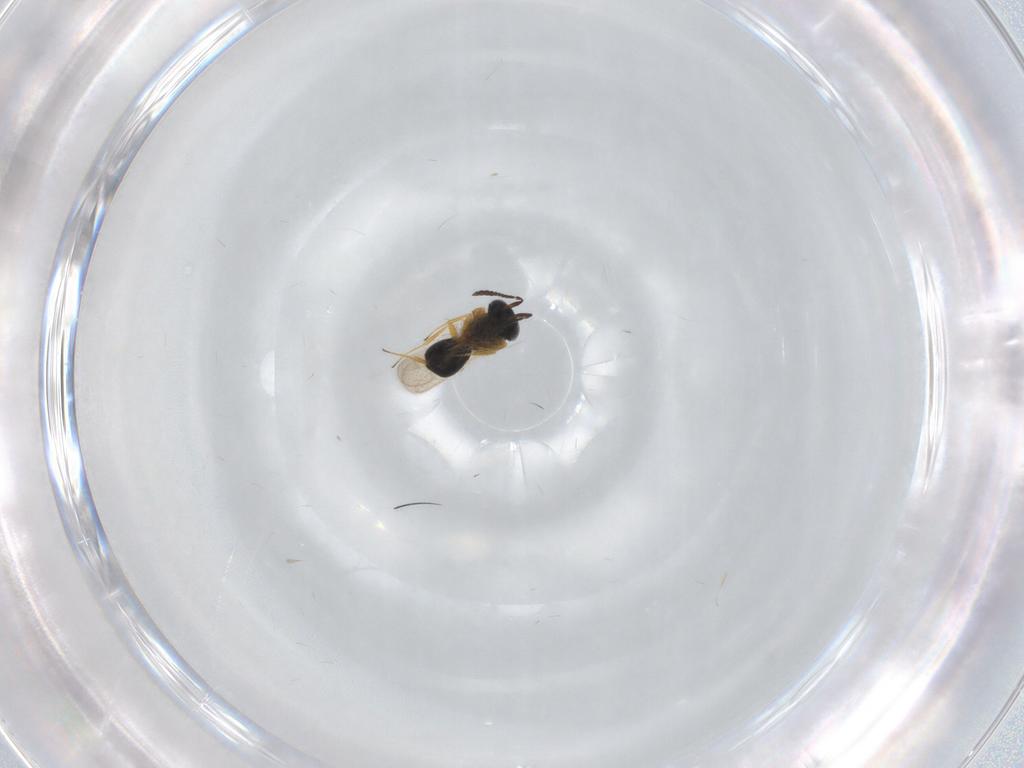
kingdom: Animalia
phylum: Arthropoda
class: Insecta
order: Hymenoptera
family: Scelionidae
